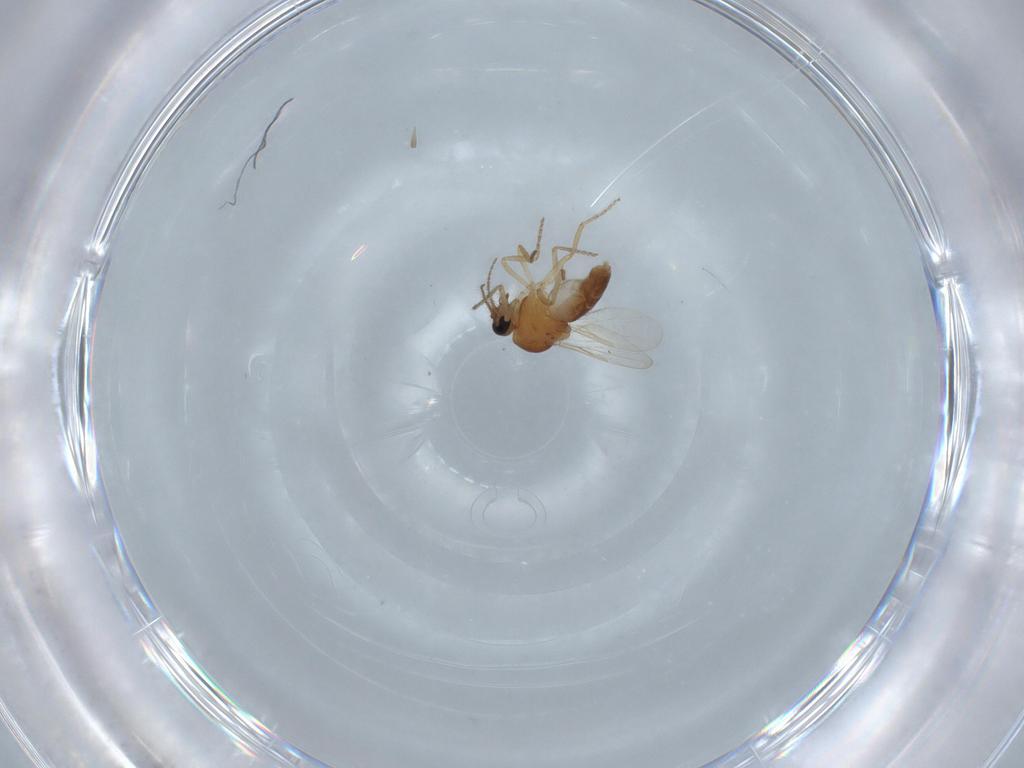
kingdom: Animalia
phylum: Arthropoda
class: Insecta
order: Diptera
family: Ceratopogonidae
